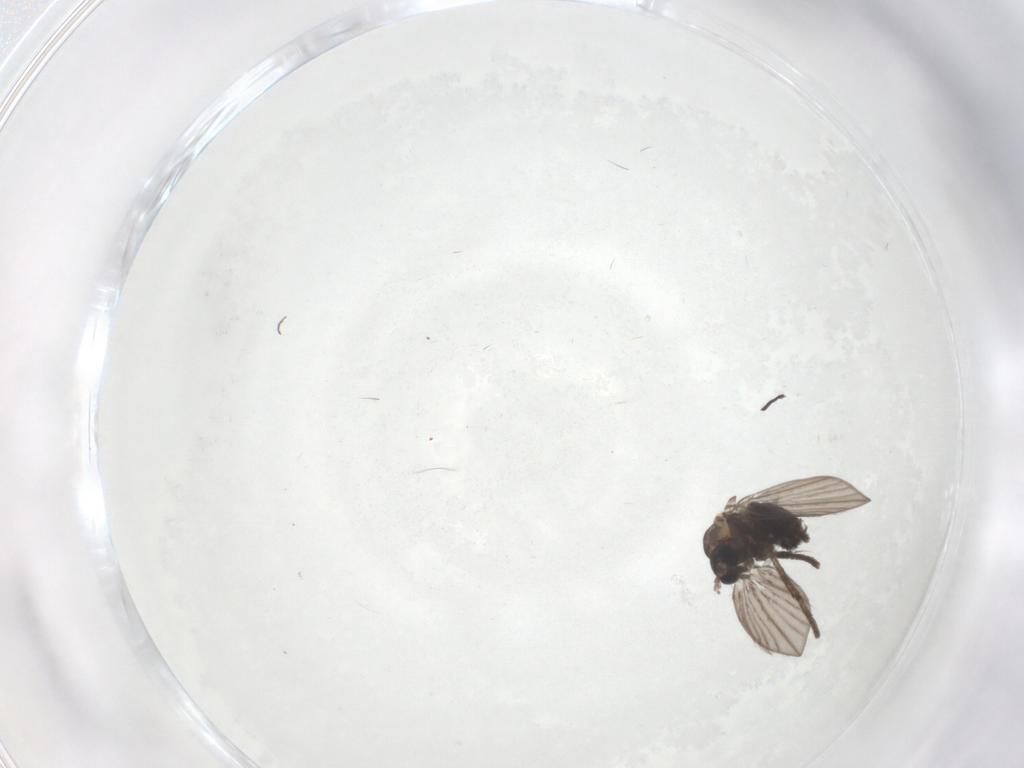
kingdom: Animalia
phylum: Arthropoda
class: Insecta
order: Diptera
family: Psychodidae
